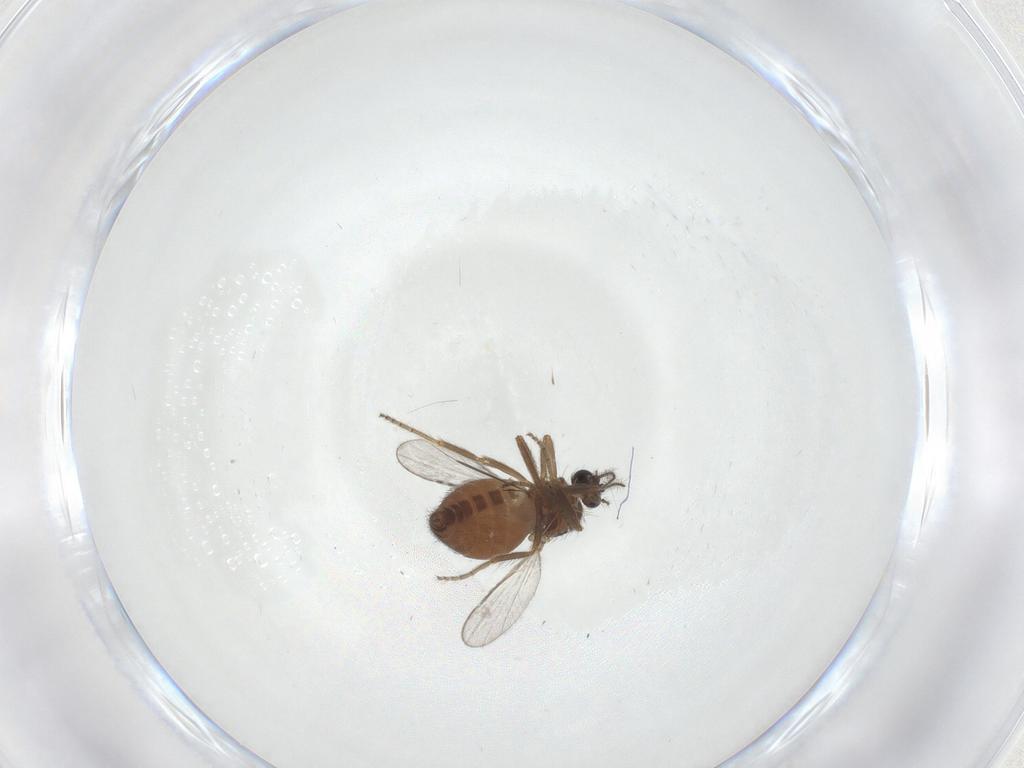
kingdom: Animalia
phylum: Arthropoda
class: Insecta
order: Diptera
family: Ceratopogonidae
